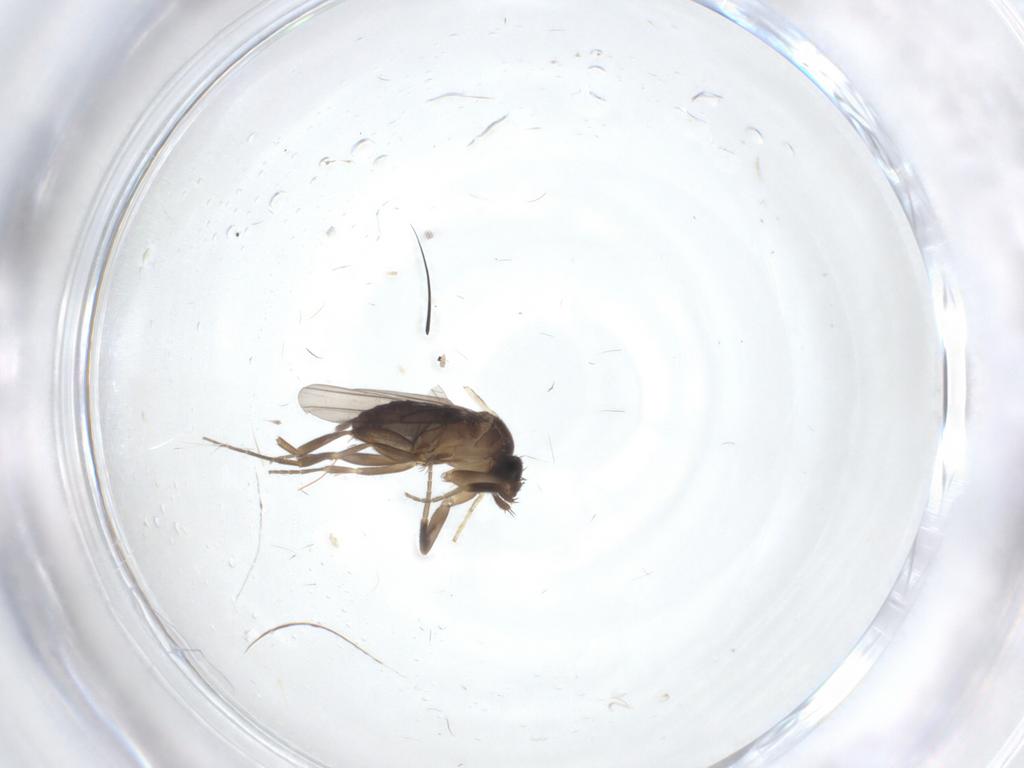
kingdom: Animalia
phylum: Arthropoda
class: Insecta
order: Diptera
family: Phoridae
